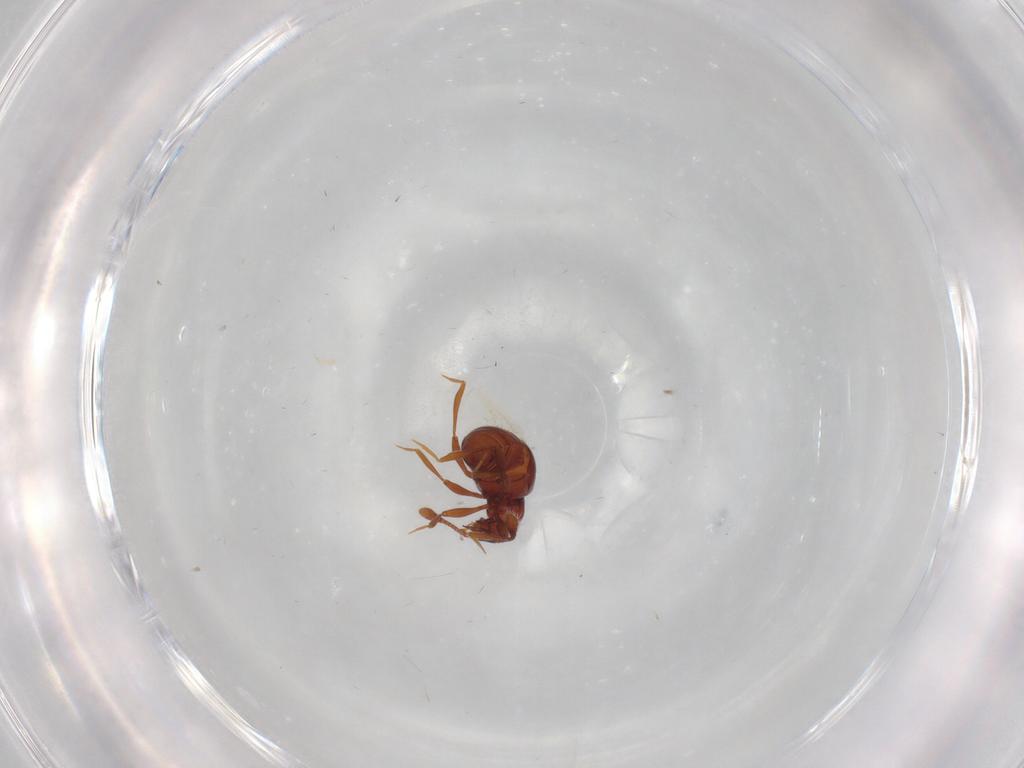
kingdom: Animalia
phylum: Arthropoda
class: Insecta
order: Coleoptera
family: Staphylinidae
